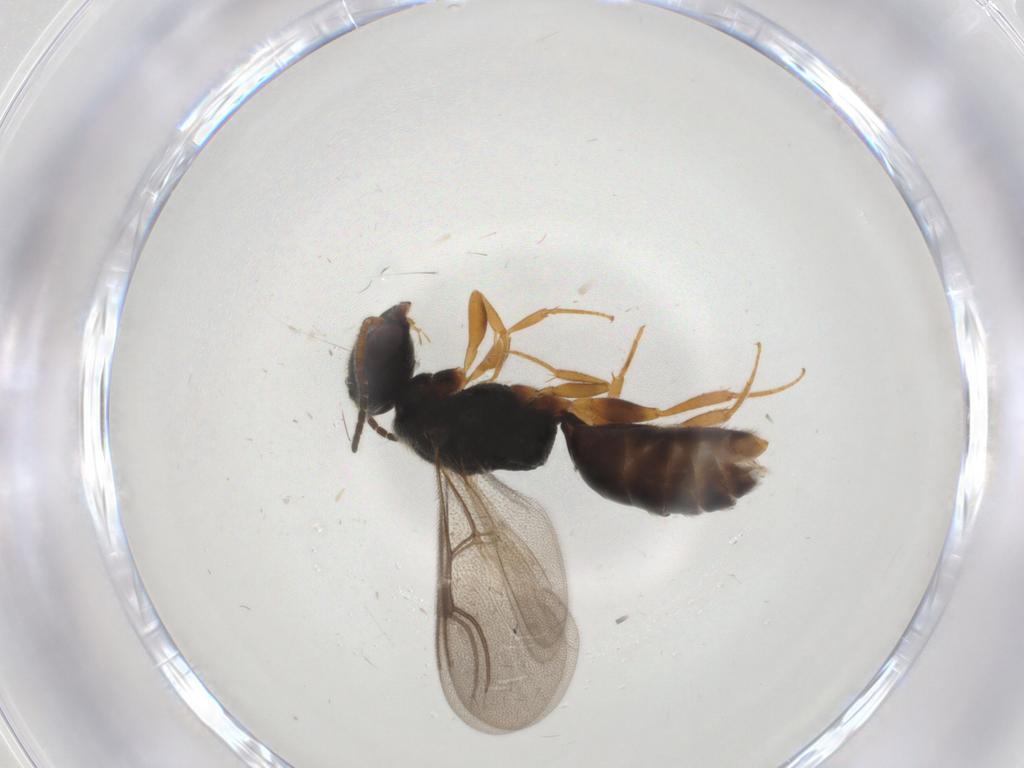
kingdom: Animalia
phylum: Arthropoda
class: Insecta
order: Hymenoptera
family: Bethylidae
